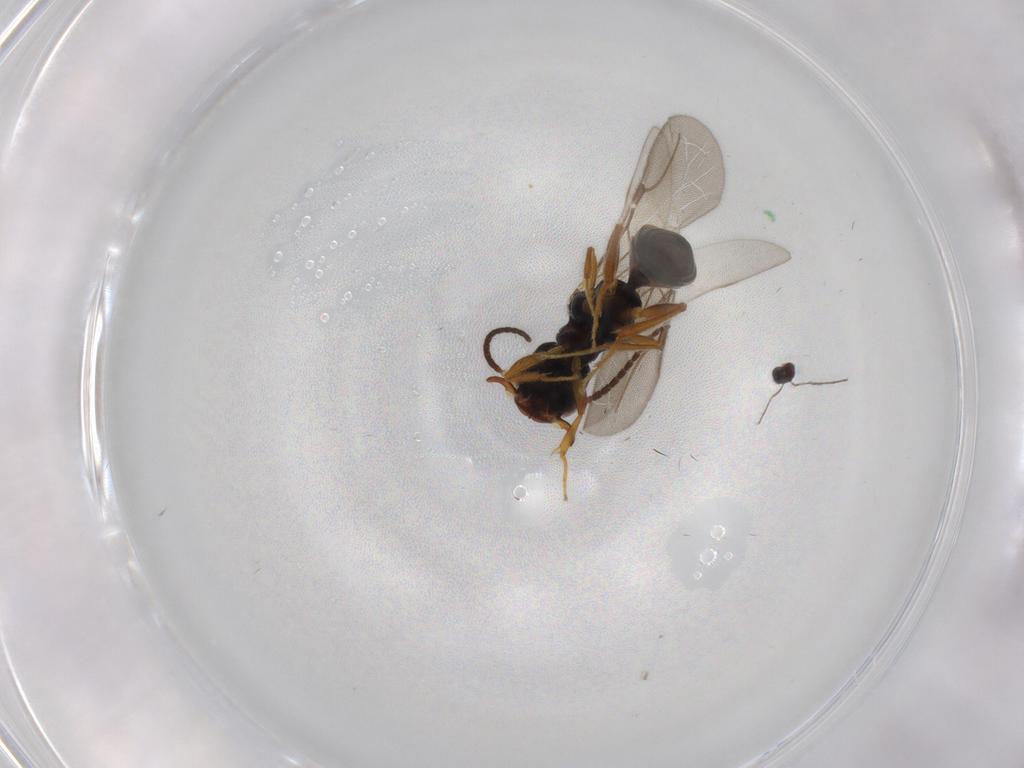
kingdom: Animalia
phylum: Arthropoda
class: Insecta
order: Hymenoptera
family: Bethylidae
